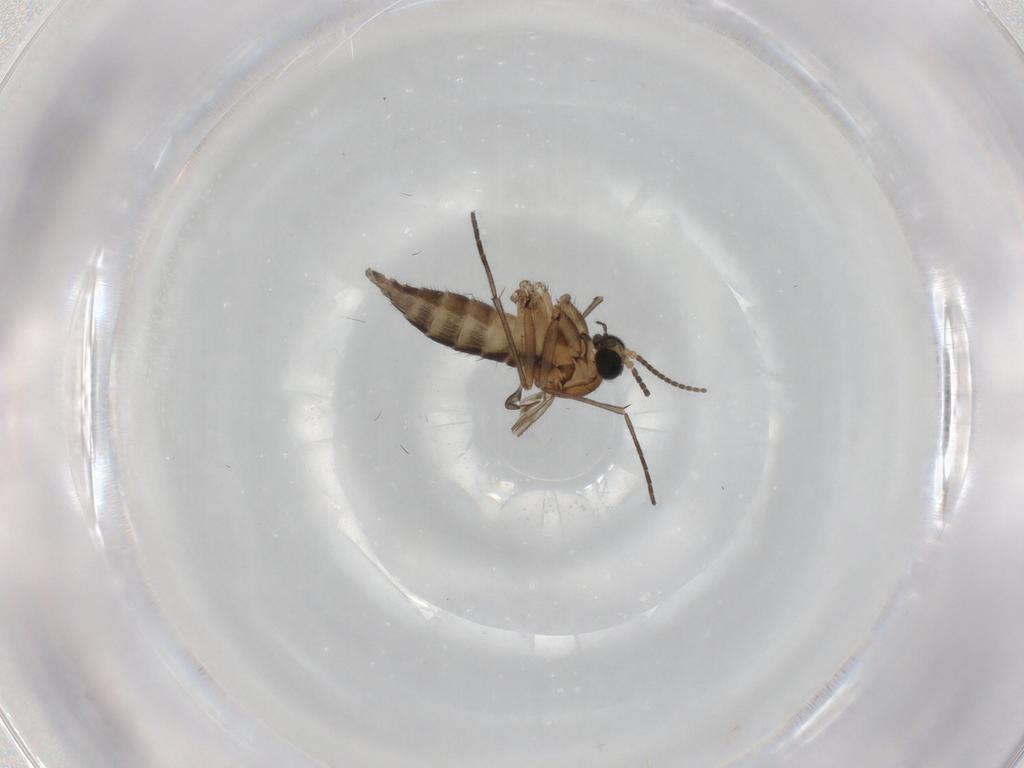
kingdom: Animalia
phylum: Arthropoda
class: Insecta
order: Diptera
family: Sciaridae
